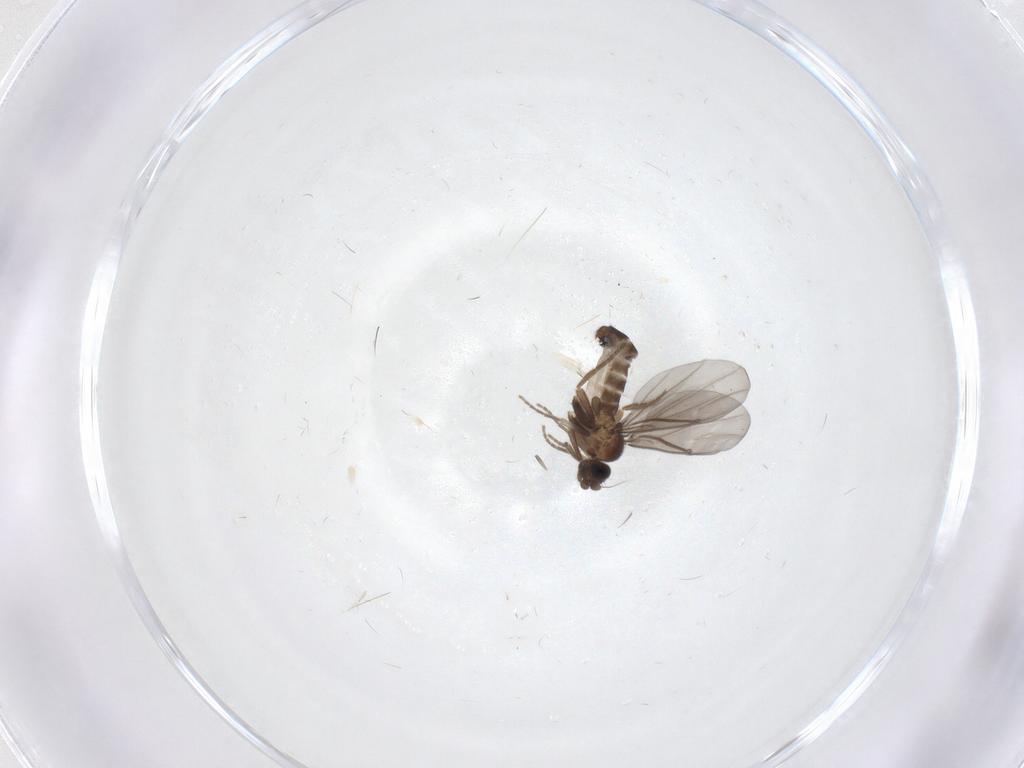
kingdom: Animalia
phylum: Arthropoda
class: Insecta
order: Diptera
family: Phoridae
